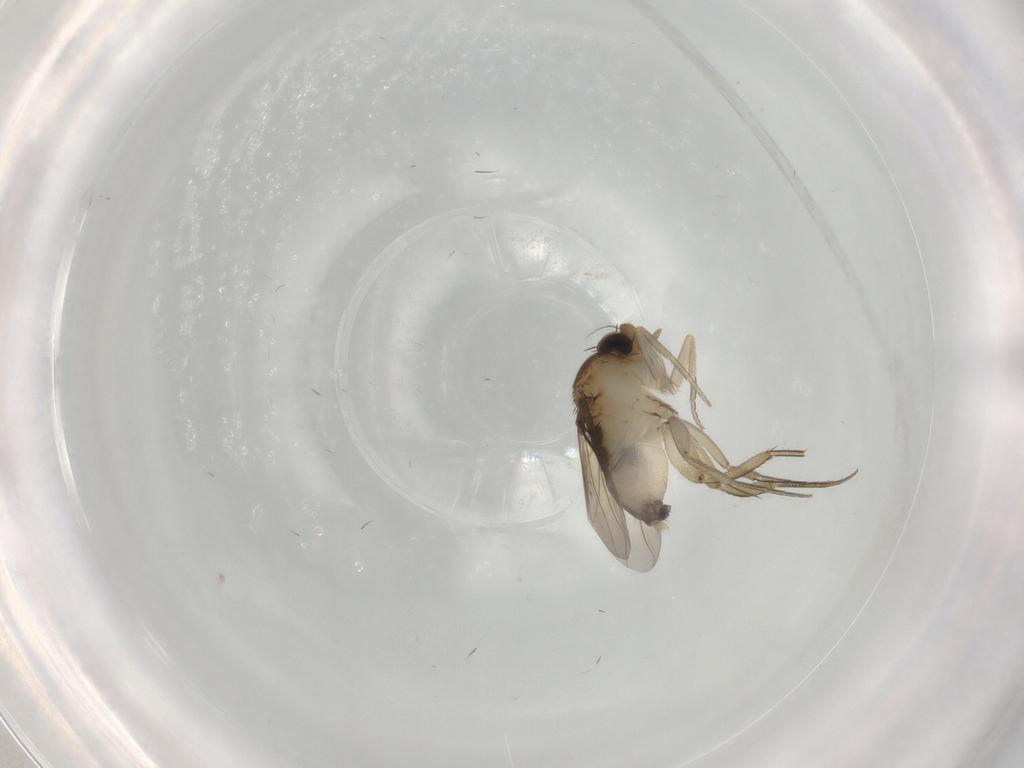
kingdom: Animalia
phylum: Arthropoda
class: Insecta
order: Diptera
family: Phoridae
